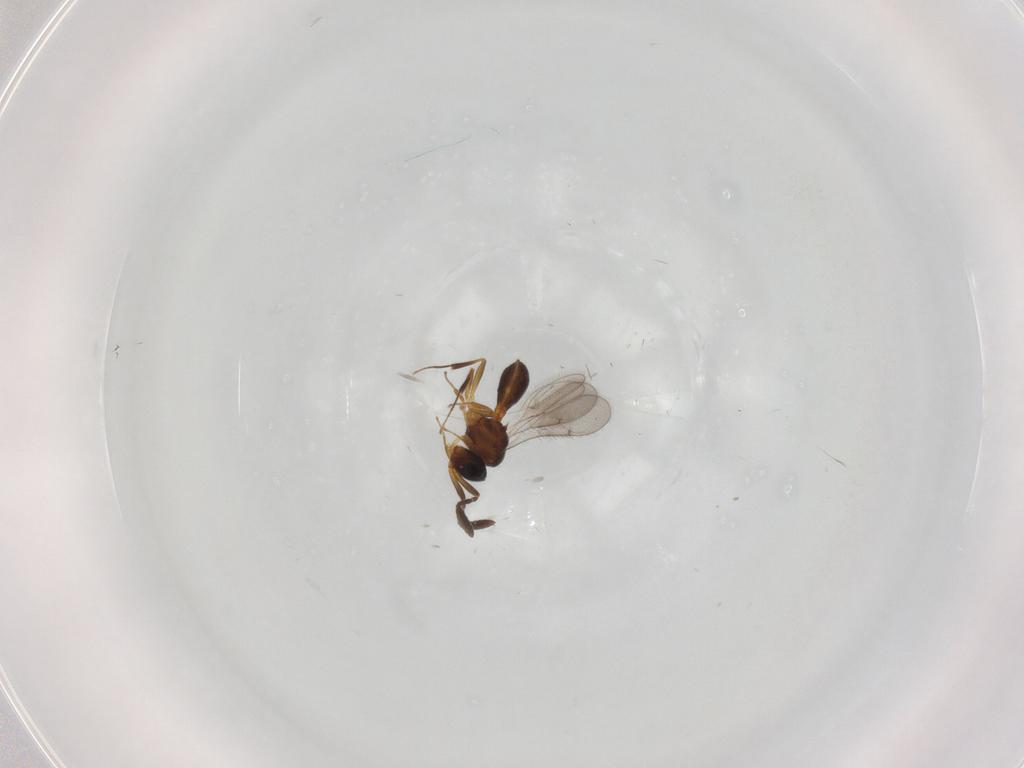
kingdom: Animalia
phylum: Arthropoda
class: Insecta
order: Hymenoptera
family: Scelionidae
